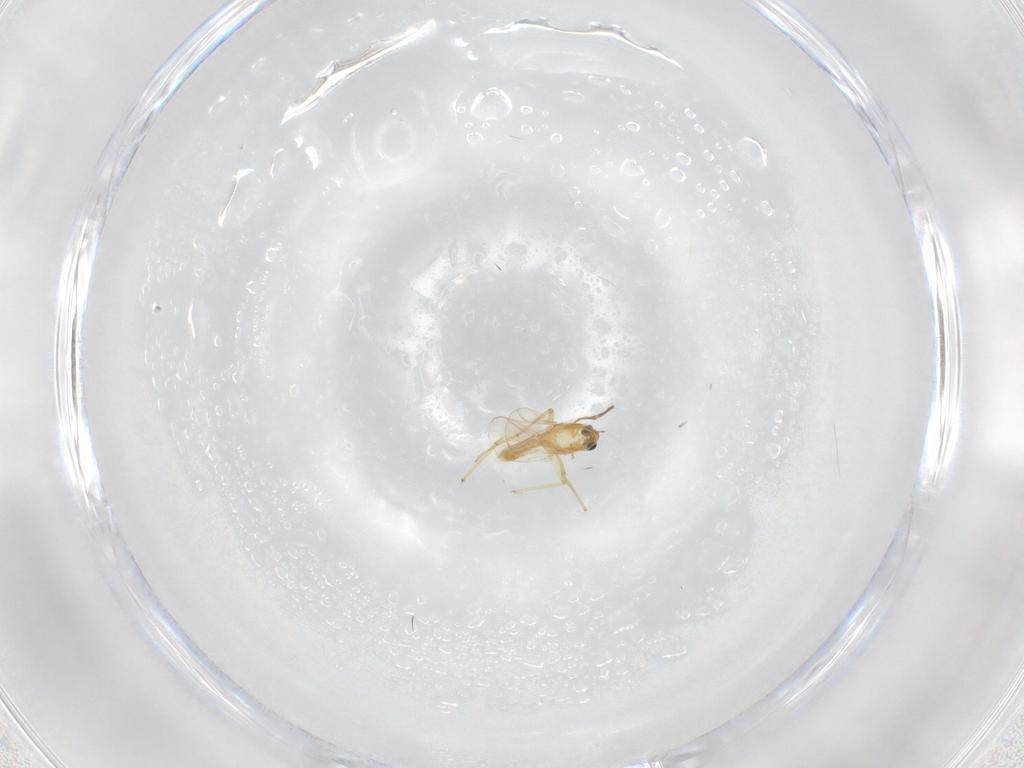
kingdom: Animalia
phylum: Arthropoda
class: Insecta
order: Diptera
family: Chironomidae
